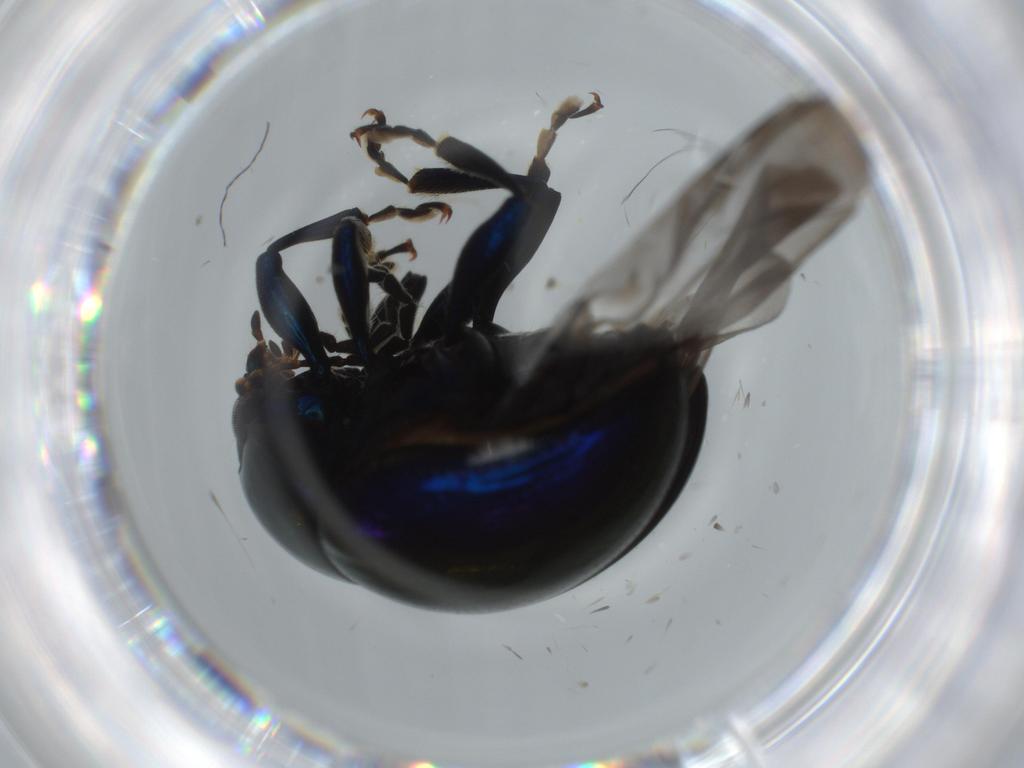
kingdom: Animalia
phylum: Arthropoda
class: Insecta
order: Coleoptera
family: Chrysomelidae
